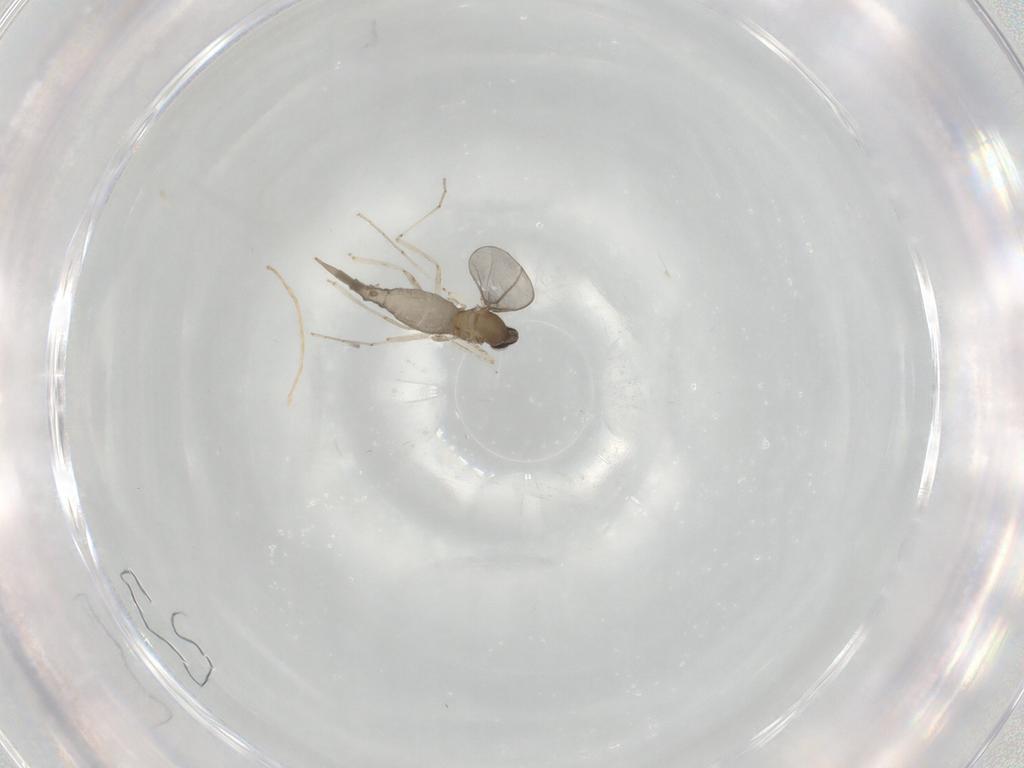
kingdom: Animalia
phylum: Arthropoda
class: Insecta
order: Diptera
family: Cecidomyiidae
